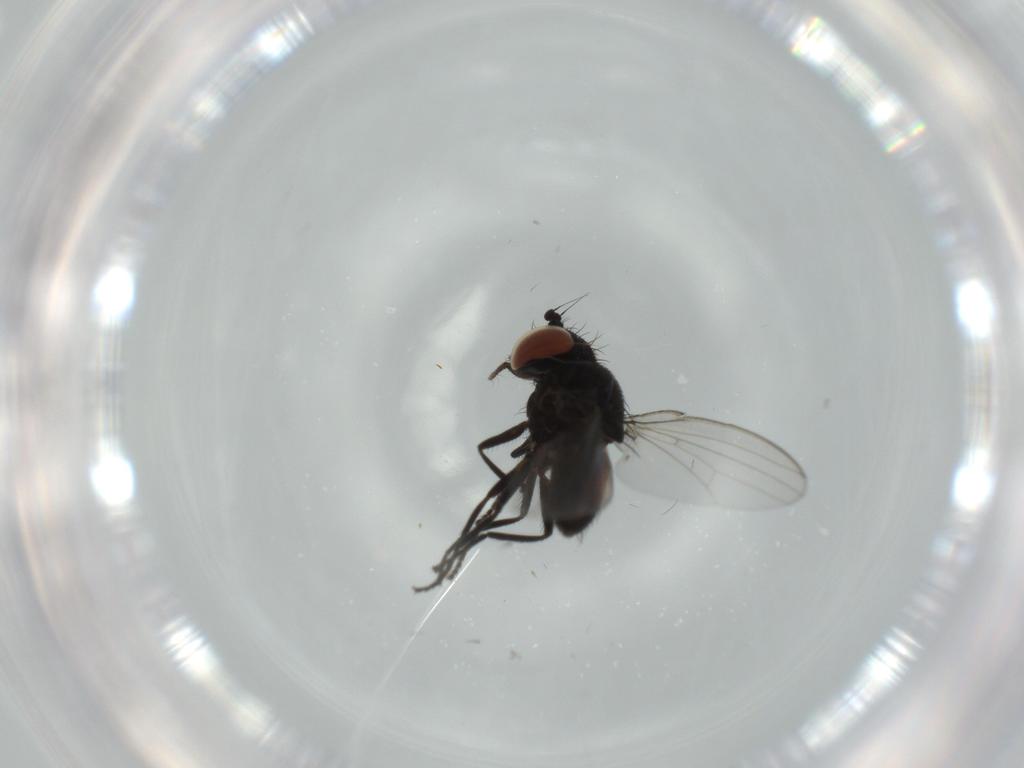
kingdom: Animalia
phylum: Arthropoda
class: Insecta
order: Diptera
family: Milichiidae
